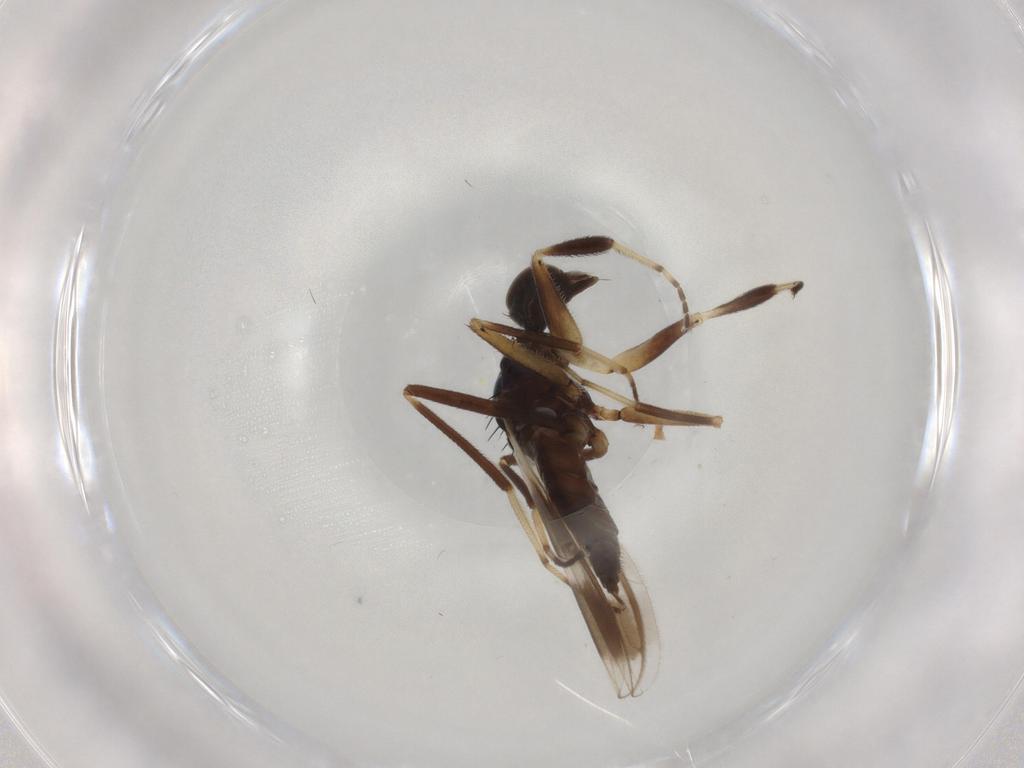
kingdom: Animalia
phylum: Arthropoda
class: Insecta
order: Diptera
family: Hybotidae
